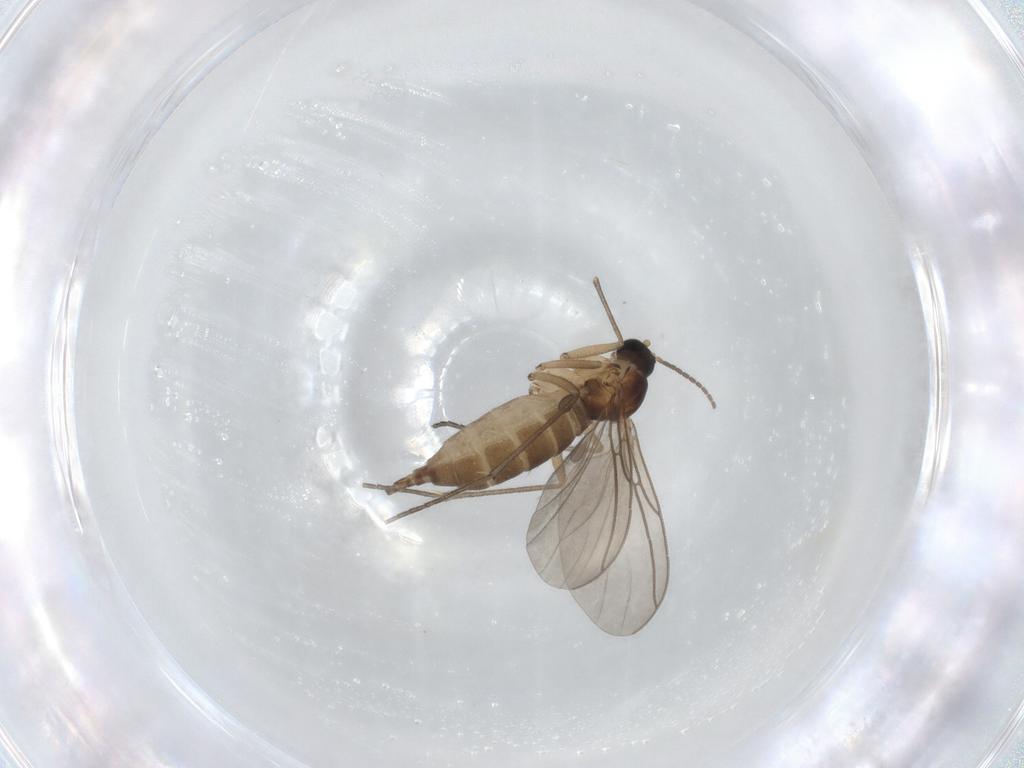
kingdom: Animalia
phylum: Arthropoda
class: Insecta
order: Diptera
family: Sciaridae
